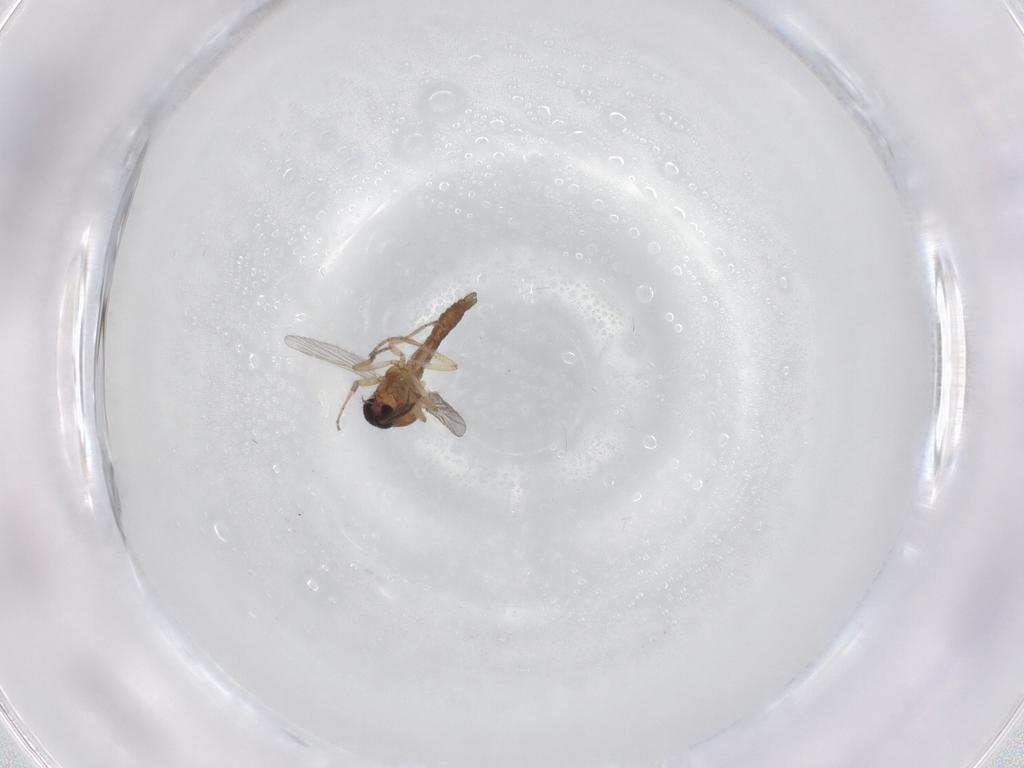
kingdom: Animalia
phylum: Arthropoda
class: Insecta
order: Diptera
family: Ceratopogonidae
